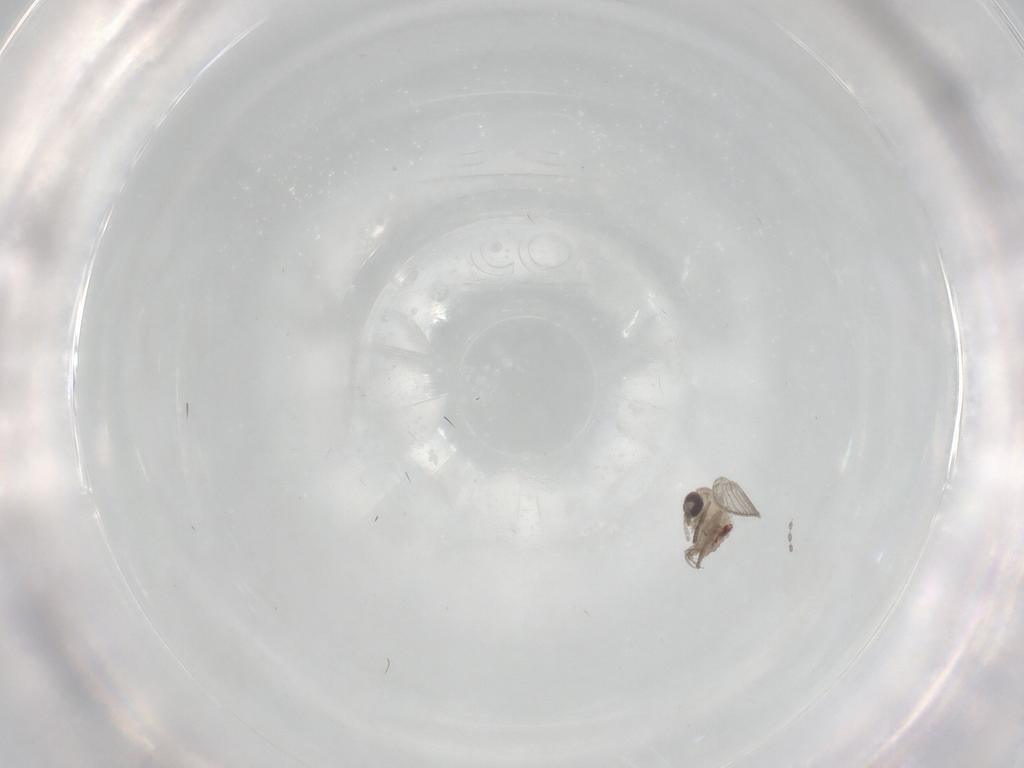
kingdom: Animalia
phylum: Arthropoda
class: Insecta
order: Diptera
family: Psychodidae
